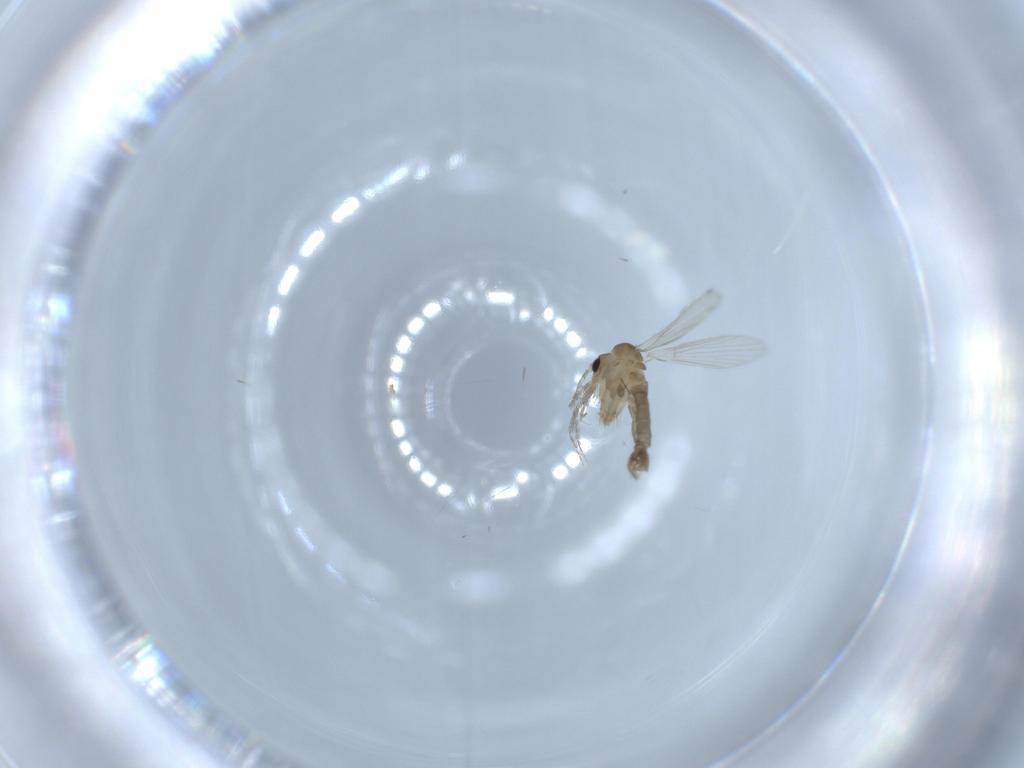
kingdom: Animalia
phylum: Arthropoda
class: Insecta
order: Diptera
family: Psychodidae
